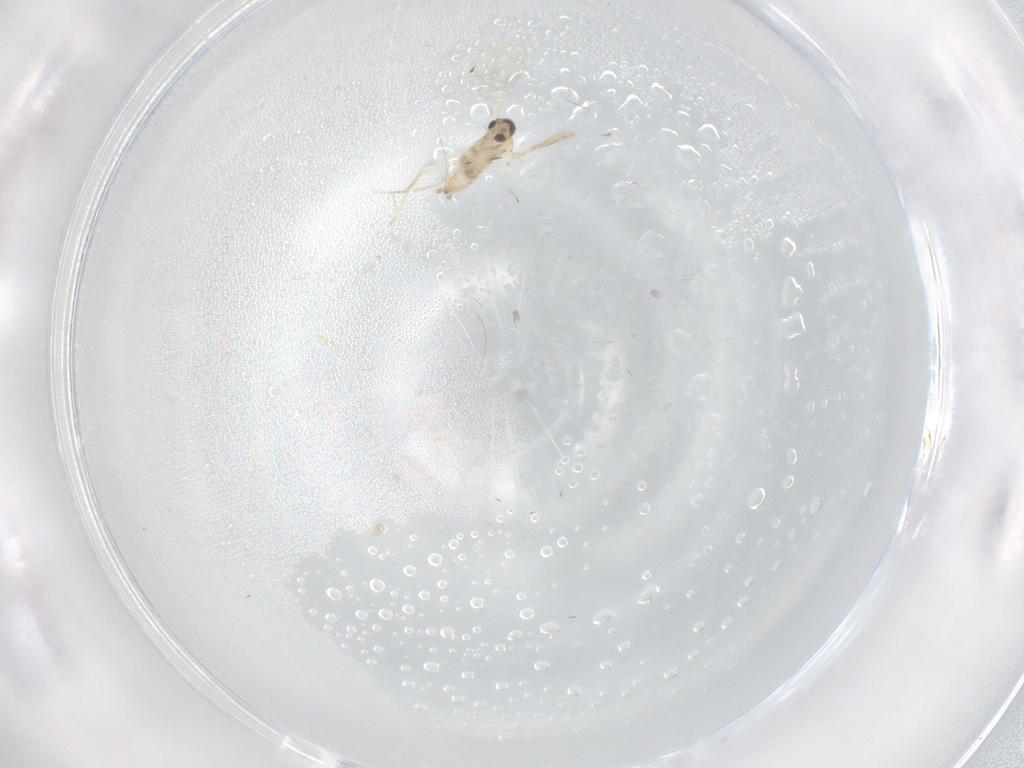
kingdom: Animalia
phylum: Arthropoda
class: Insecta
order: Diptera
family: Cecidomyiidae
